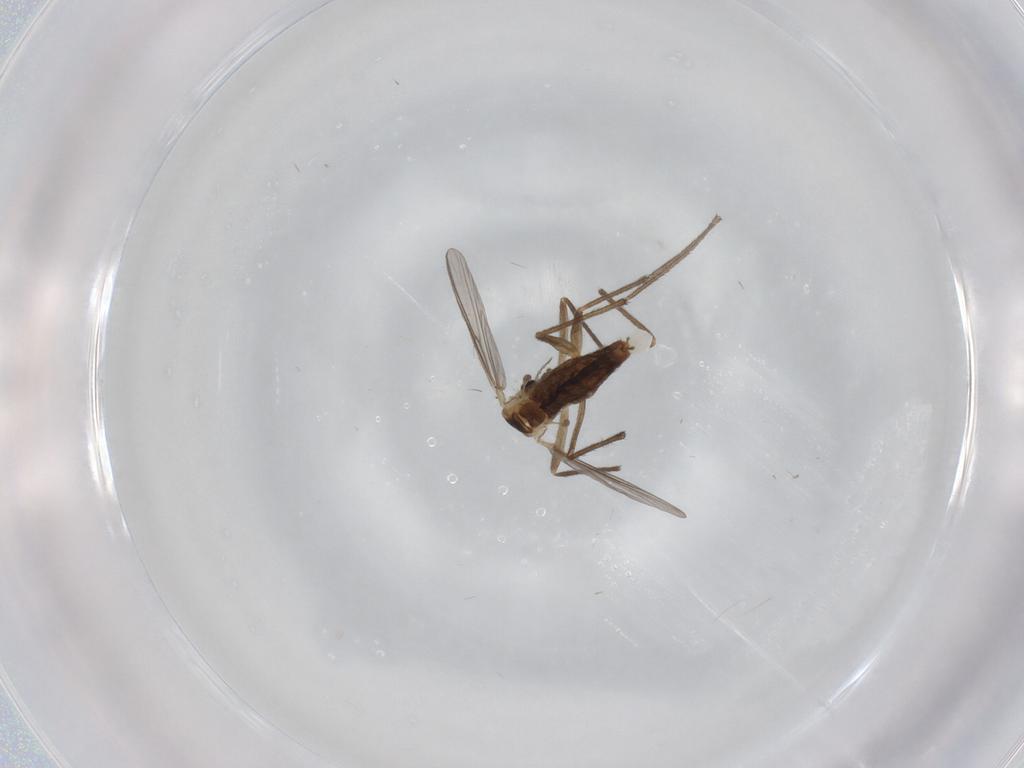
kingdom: Animalia
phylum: Arthropoda
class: Insecta
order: Diptera
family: Chironomidae
